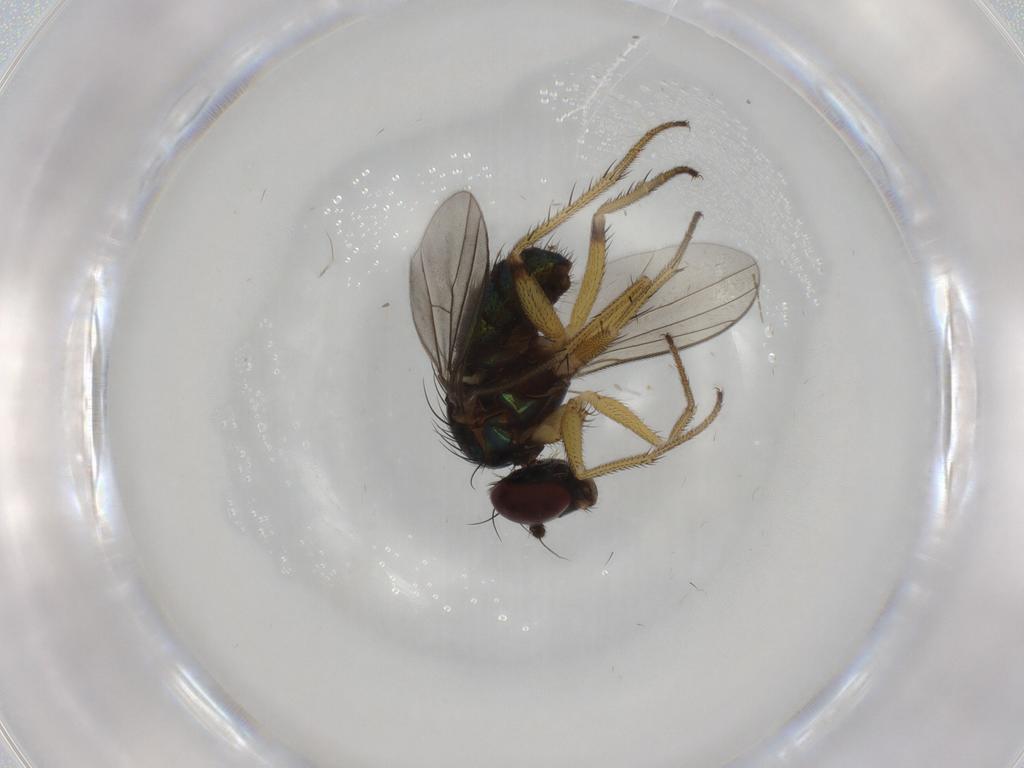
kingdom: Animalia
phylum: Arthropoda
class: Insecta
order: Diptera
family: Dolichopodidae
